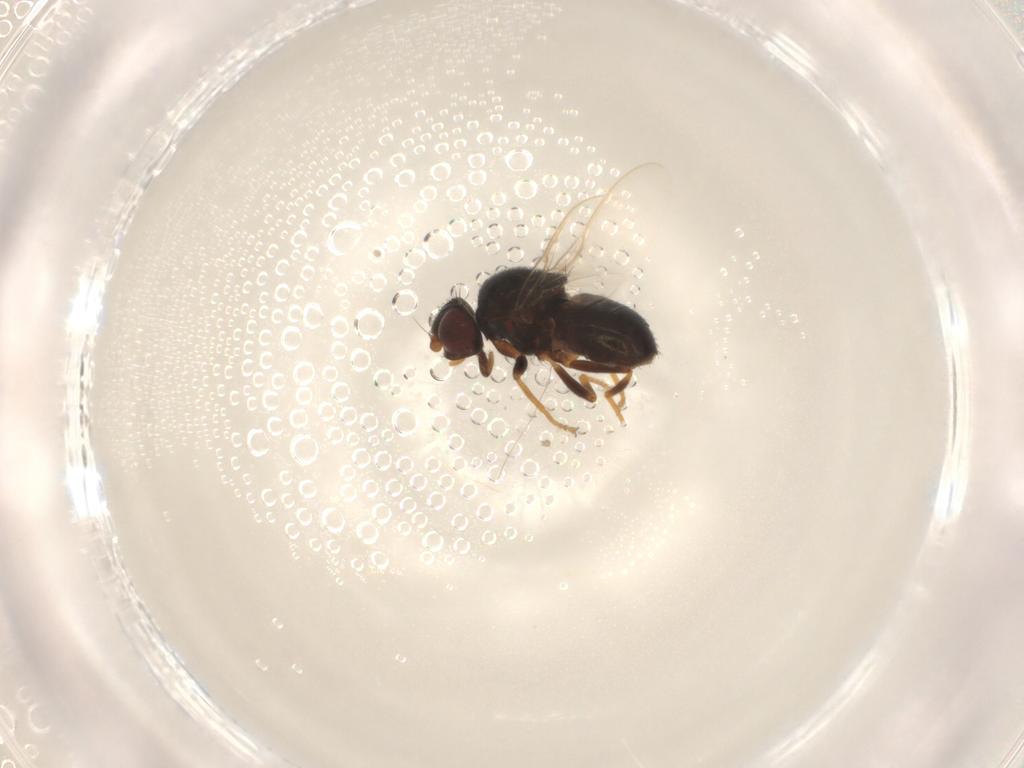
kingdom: Animalia
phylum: Arthropoda
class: Insecta
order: Diptera
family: Chloropidae
